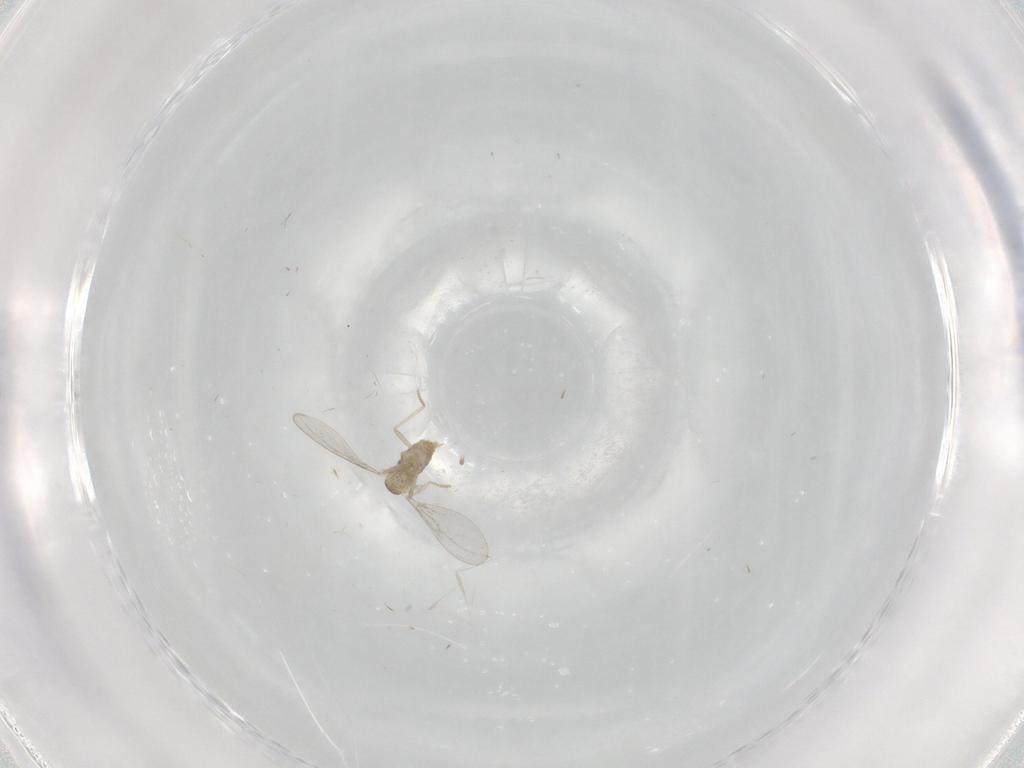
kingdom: Animalia
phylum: Arthropoda
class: Insecta
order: Diptera
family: Cecidomyiidae
